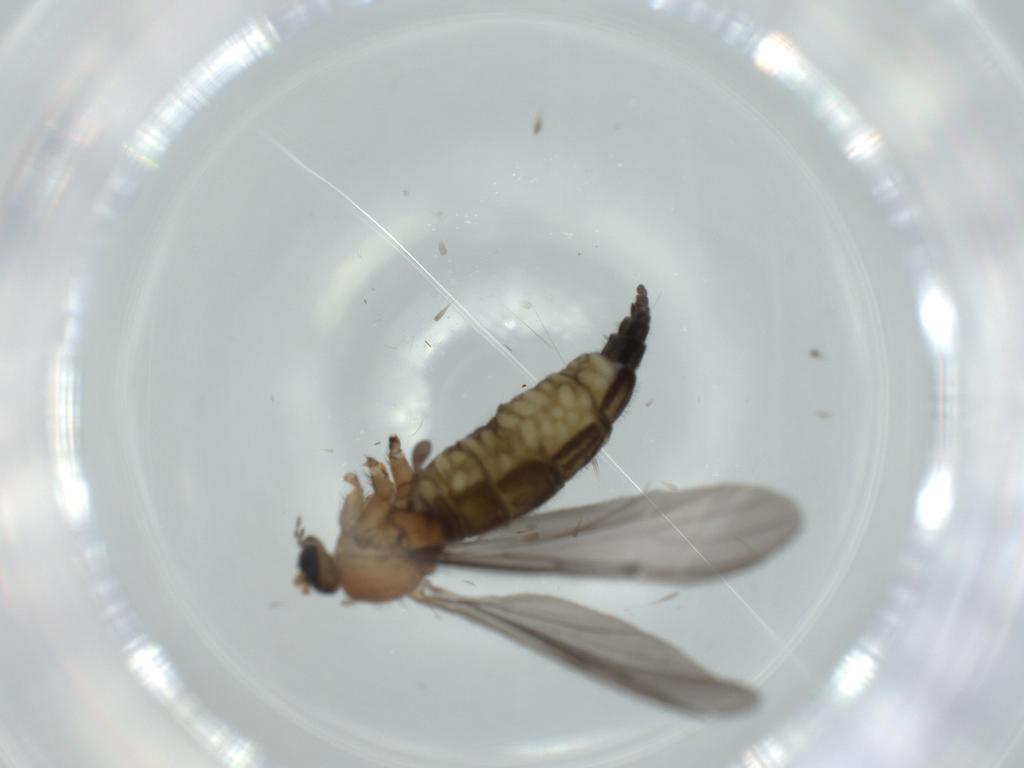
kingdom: Animalia
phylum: Arthropoda
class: Insecta
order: Diptera
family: Sciaridae
